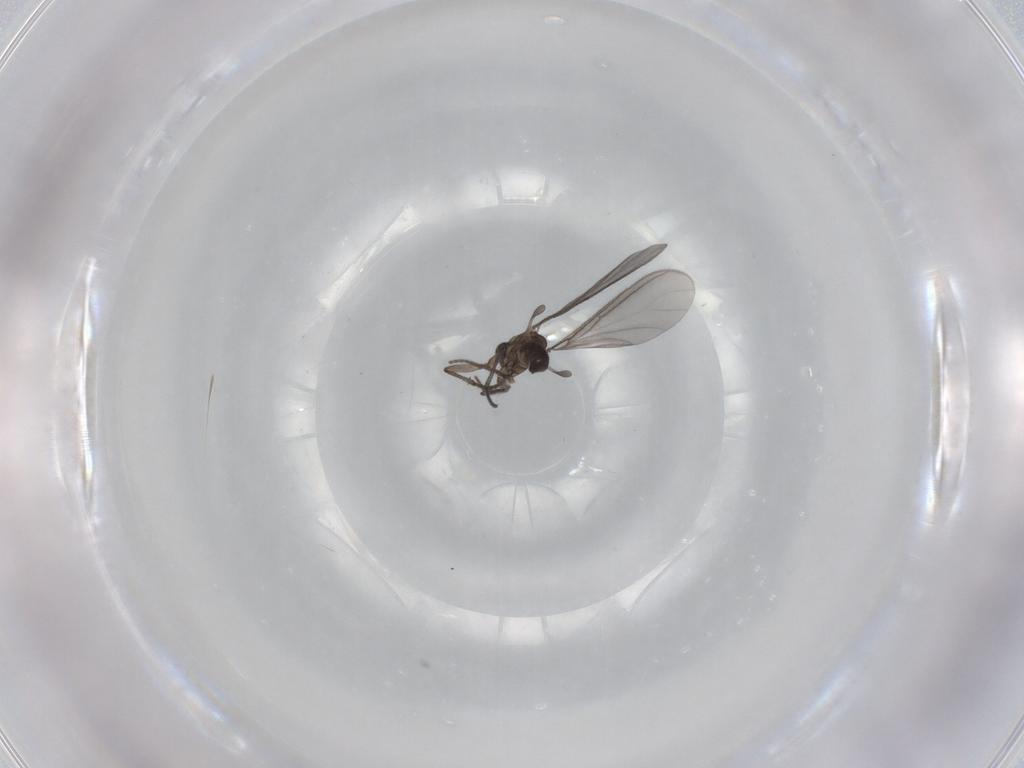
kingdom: Animalia
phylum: Arthropoda
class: Insecta
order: Diptera
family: Sciaridae
